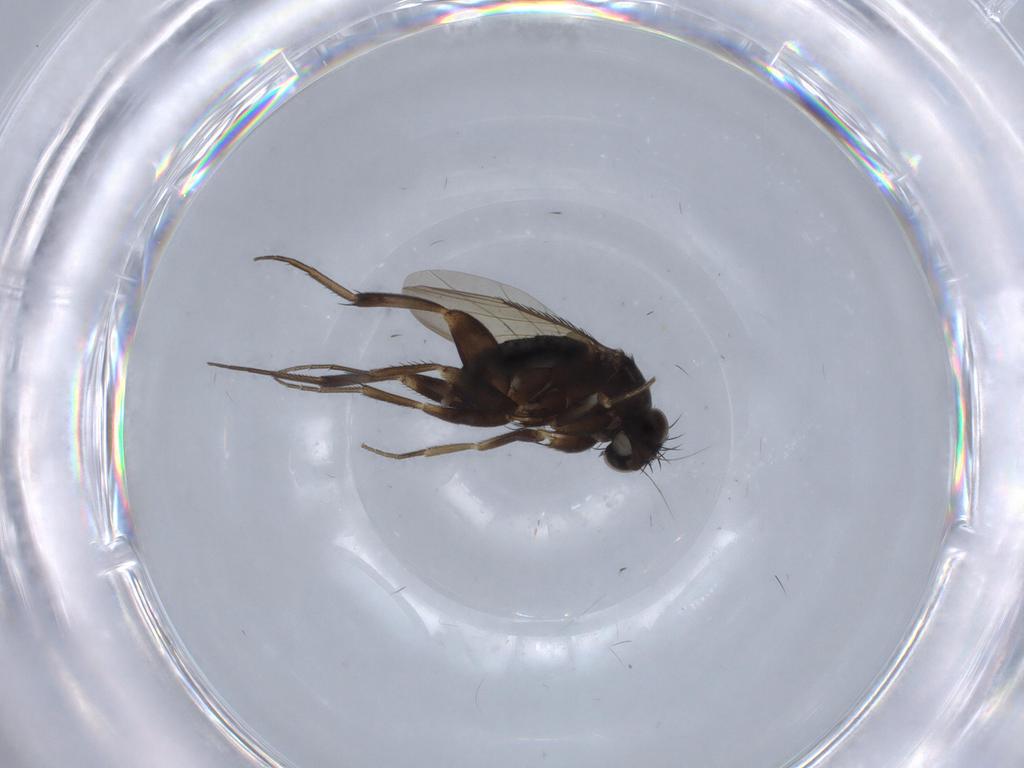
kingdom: Animalia
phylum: Arthropoda
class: Insecta
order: Diptera
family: Phoridae
